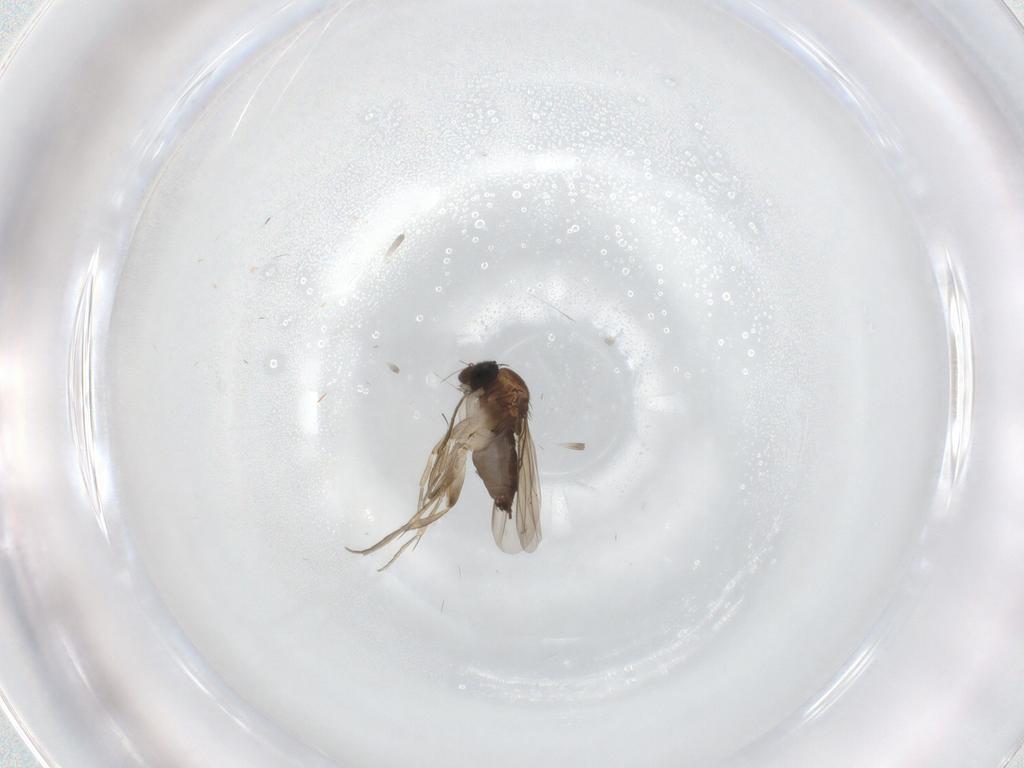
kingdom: Animalia
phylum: Arthropoda
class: Insecta
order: Diptera
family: Phoridae
